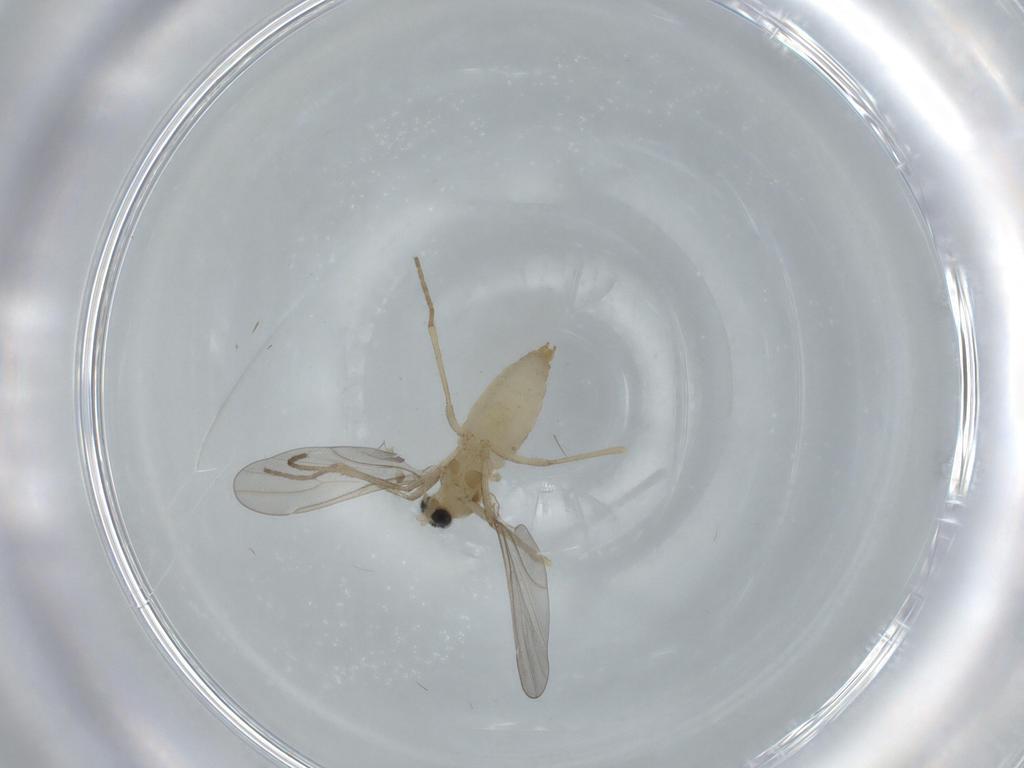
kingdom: Animalia
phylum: Arthropoda
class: Insecta
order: Diptera
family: Cecidomyiidae
